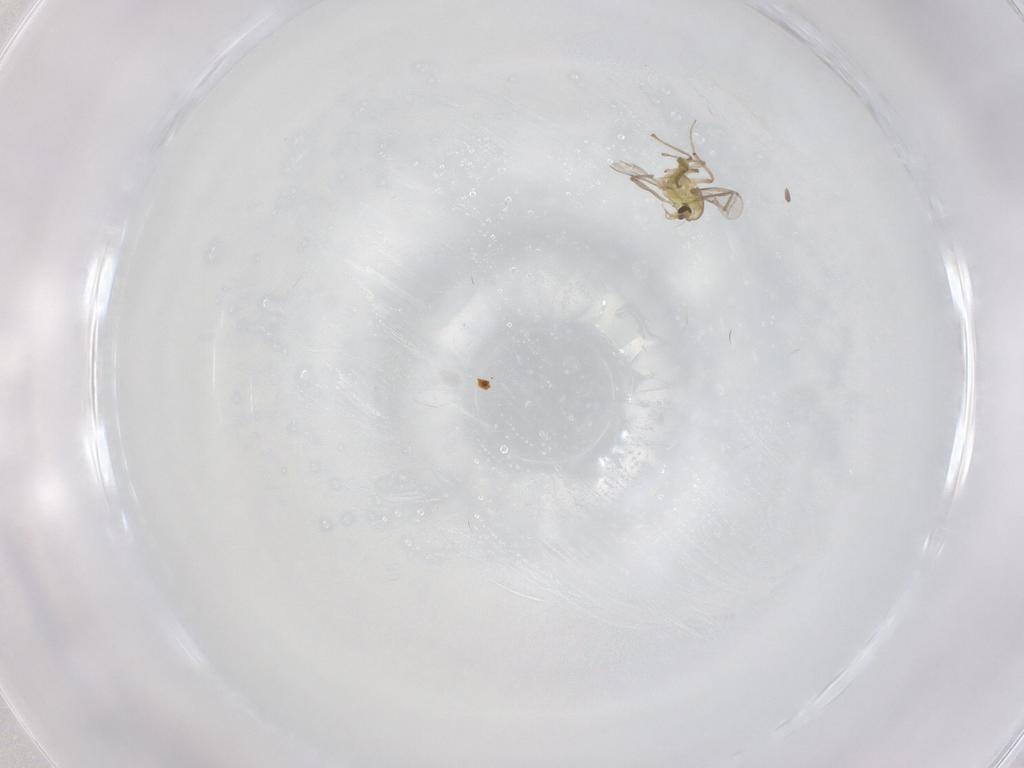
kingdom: Animalia
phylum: Arthropoda
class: Insecta
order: Diptera
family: Chironomidae
